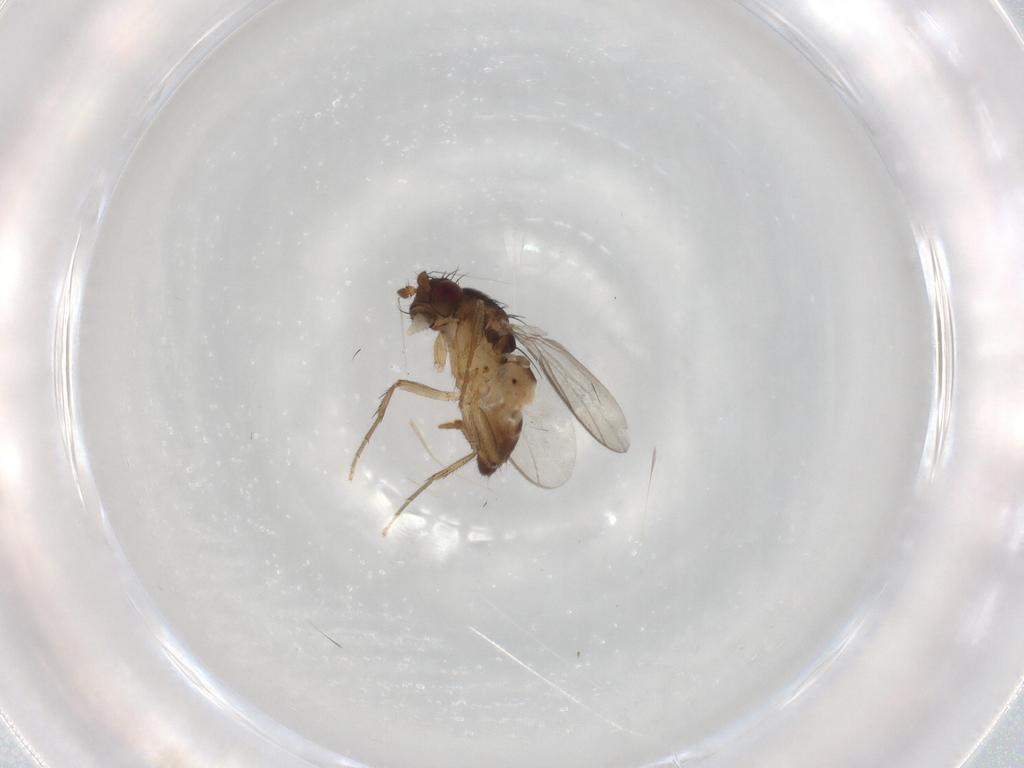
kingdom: Animalia
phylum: Arthropoda
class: Insecta
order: Diptera
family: Sphaeroceridae
